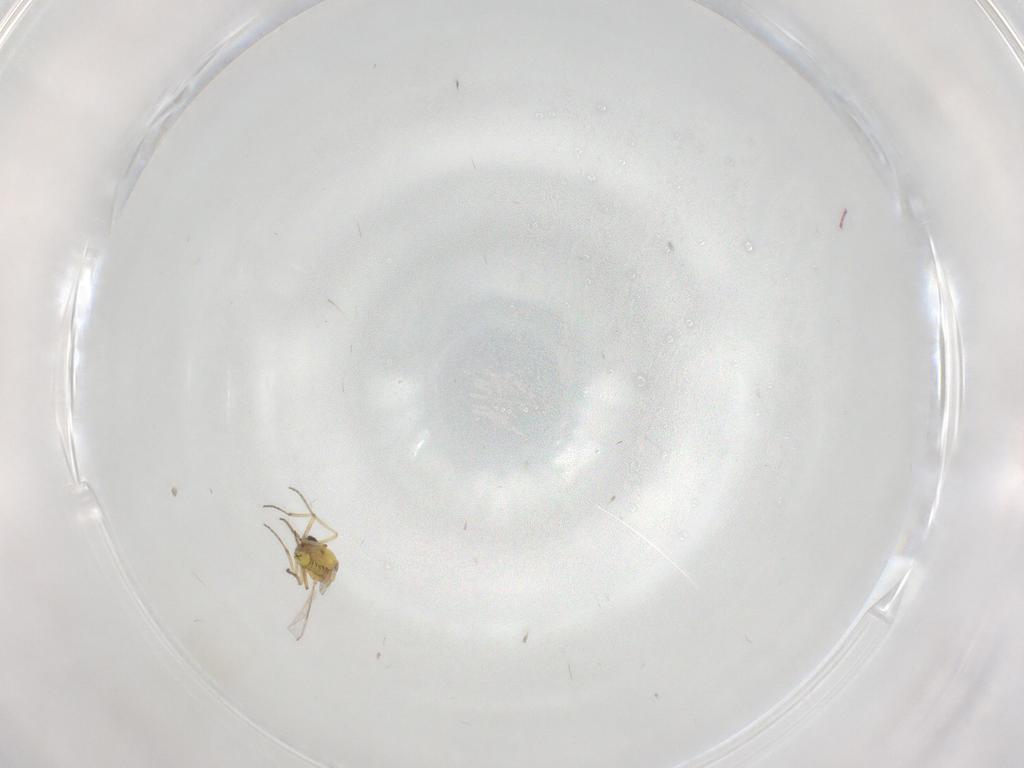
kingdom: Animalia
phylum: Arthropoda
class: Insecta
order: Diptera
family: Ceratopogonidae
